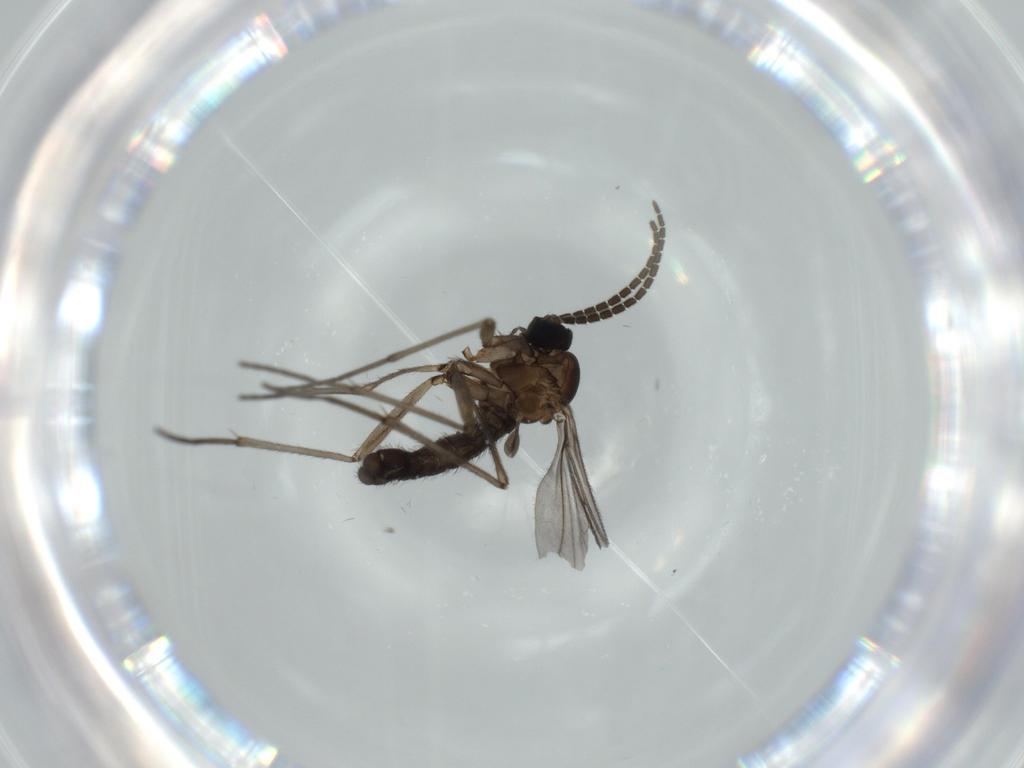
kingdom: Animalia
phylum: Arthropoda
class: Insecta
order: Diptera
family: Sciaridae
